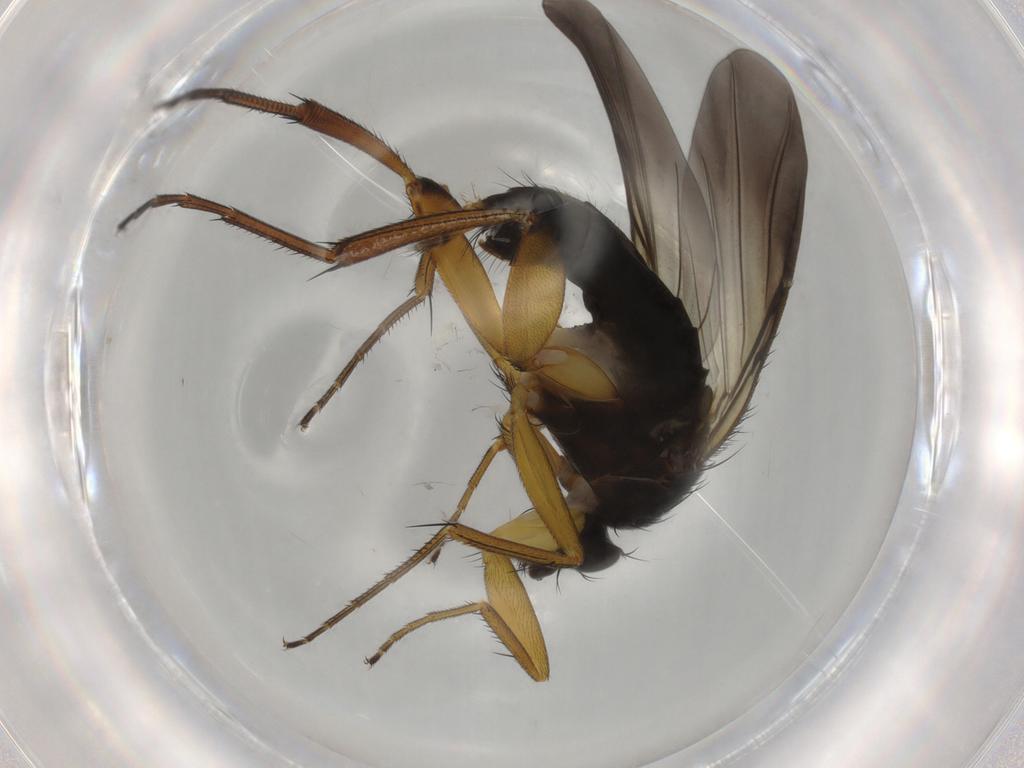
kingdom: Animalia
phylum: Arthropoda
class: Insecta
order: Diptera
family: Phoridae
